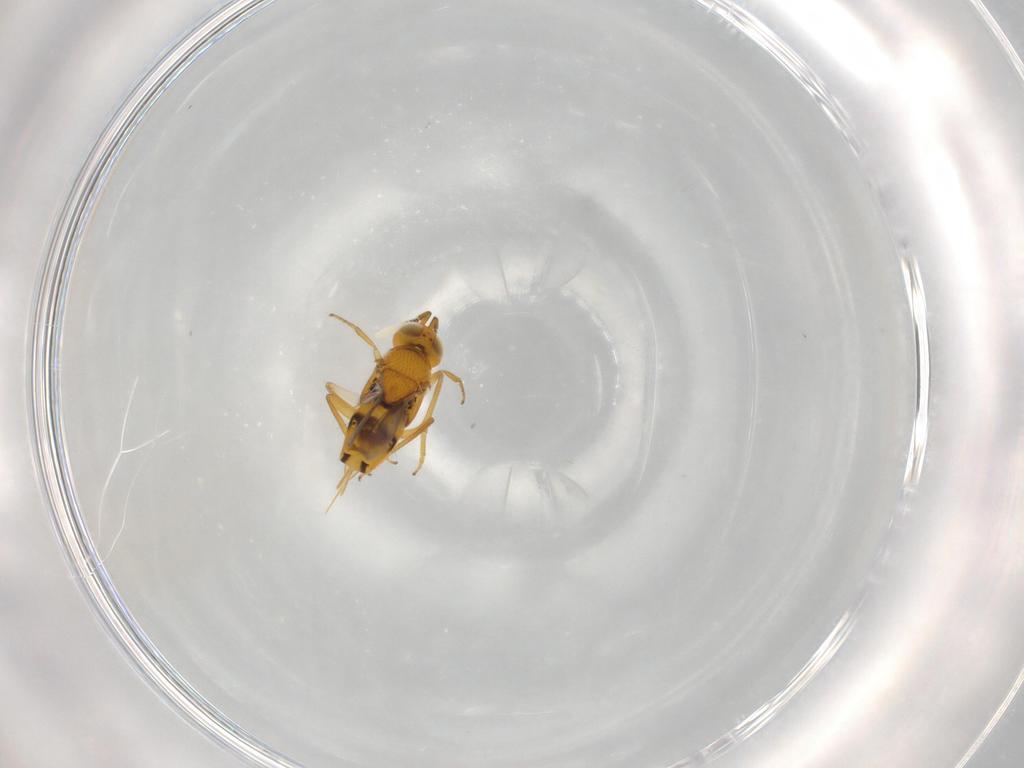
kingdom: Animalia
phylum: Arthropoda
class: Insecta
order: Hymenoptera
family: Encyrtidae
